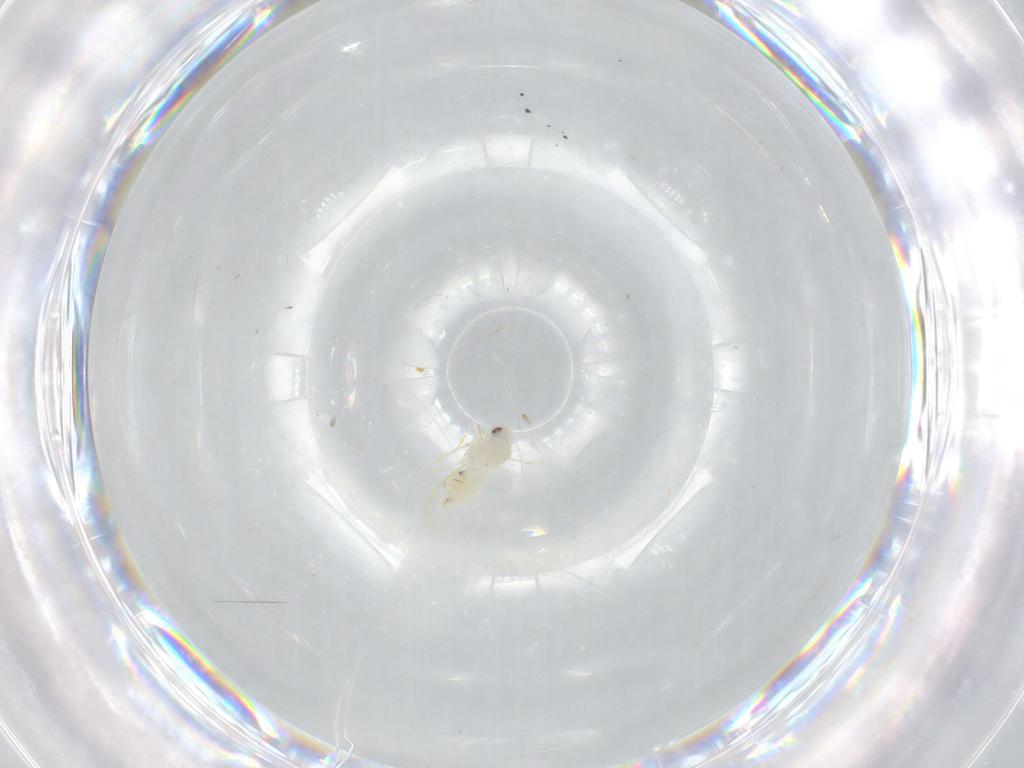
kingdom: Animalia
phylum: Arthropoda
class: Insecta
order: Hemiptera
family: Aleyrodidae
